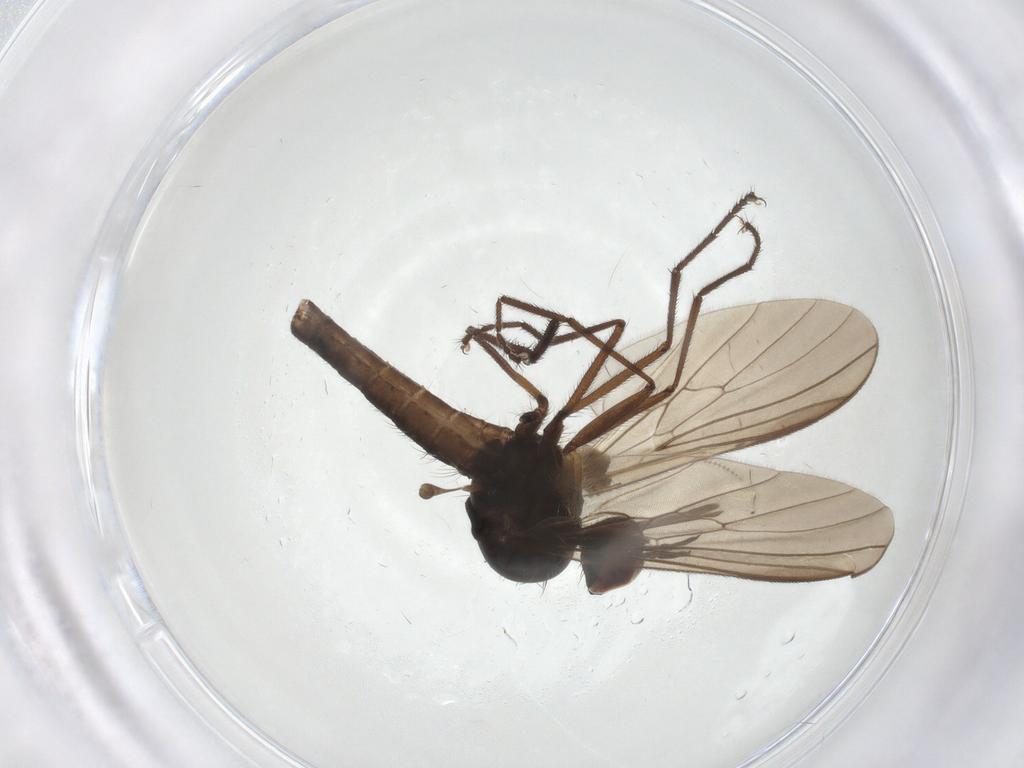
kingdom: Animalia
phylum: Arthropoda
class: Insecta
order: Diptera
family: Empididae
